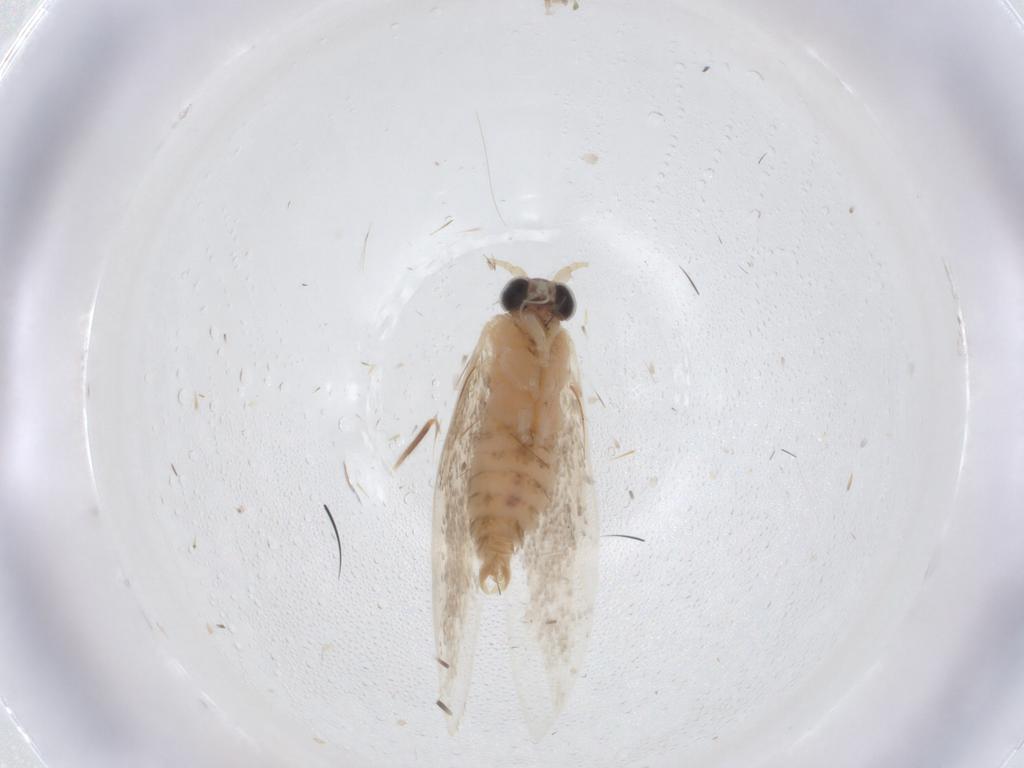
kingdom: Animalia
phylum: Arthropoda
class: Insecta
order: Lepidoptera
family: Crambidae
